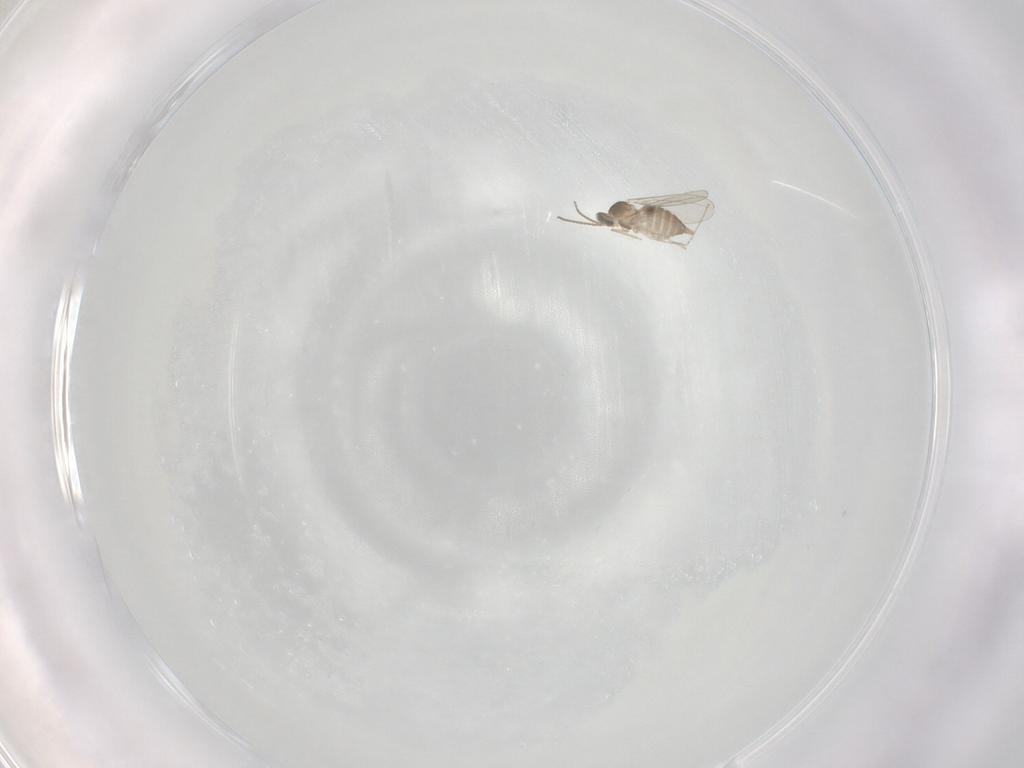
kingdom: Animalia
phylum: Arthropoda
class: Insecta
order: Diptera
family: Cecidomyiidae
